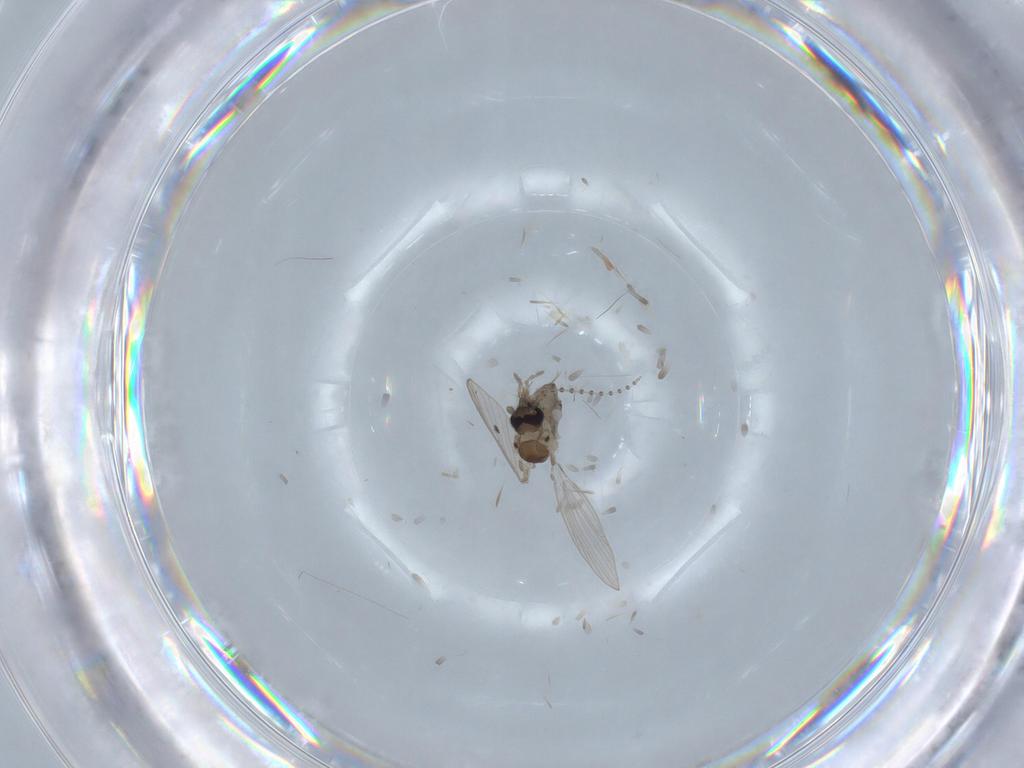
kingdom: Animalia
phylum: Arthropoda
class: Insecta
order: Diptera
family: Psychodidae
